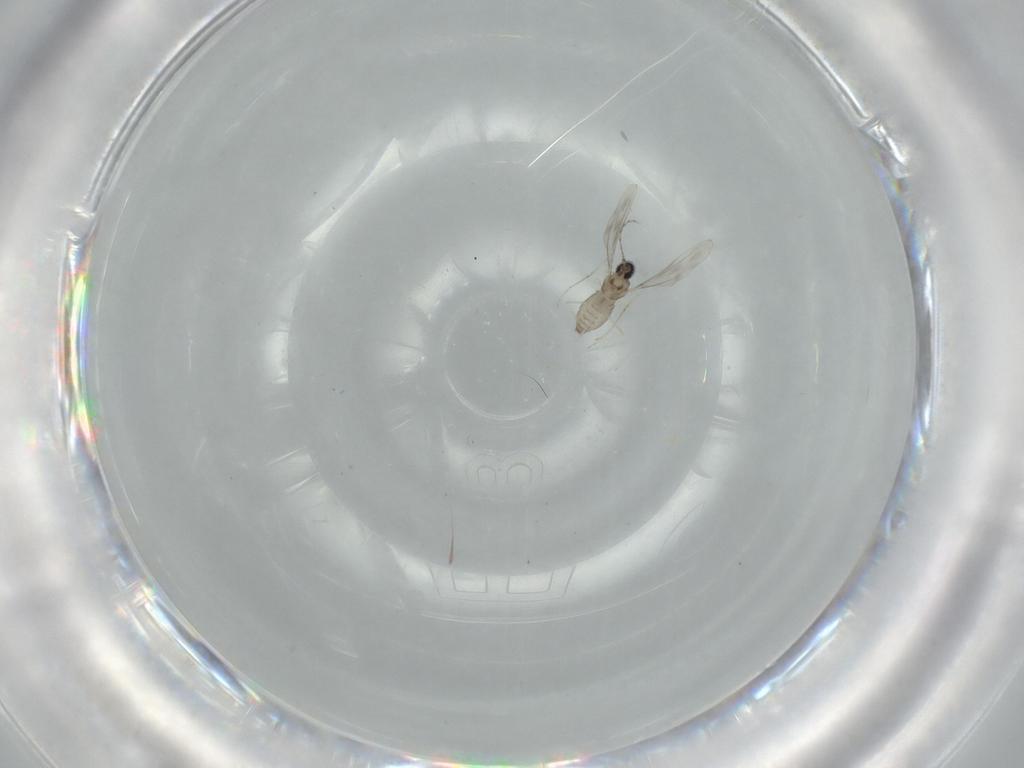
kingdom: Animalia
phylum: Arthropoda
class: Insecta
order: Diptera
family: Cecidomyiidae
